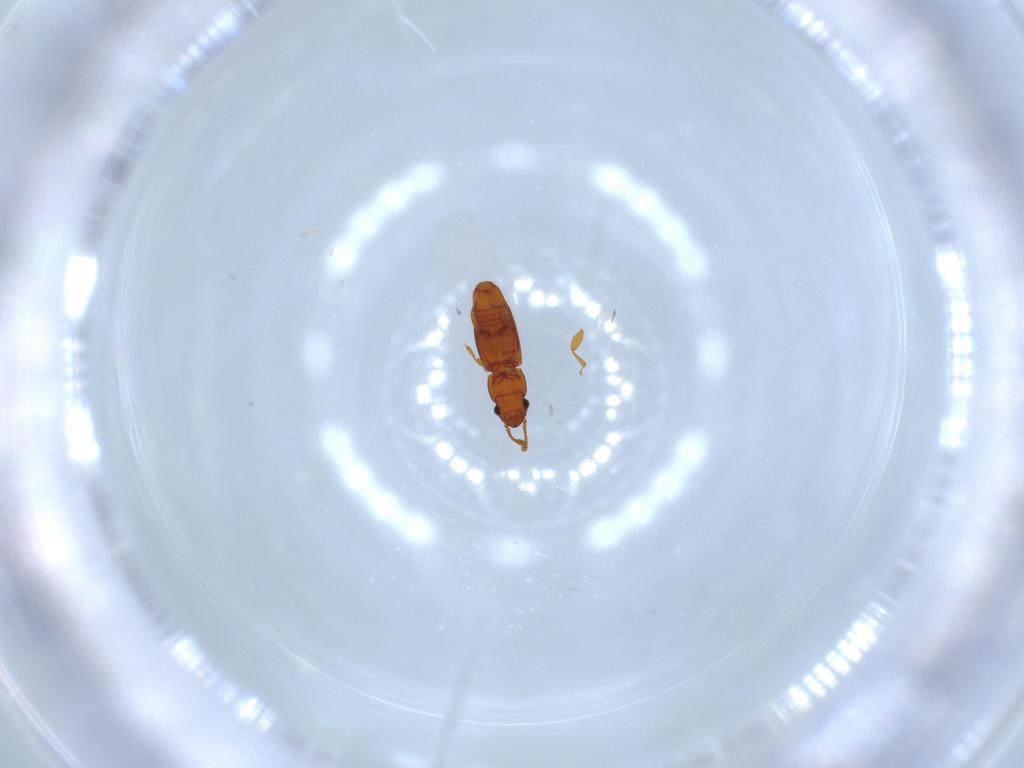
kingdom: Animalia
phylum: Arthropoda
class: Insecta
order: Coleoptera
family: Smicripidae
